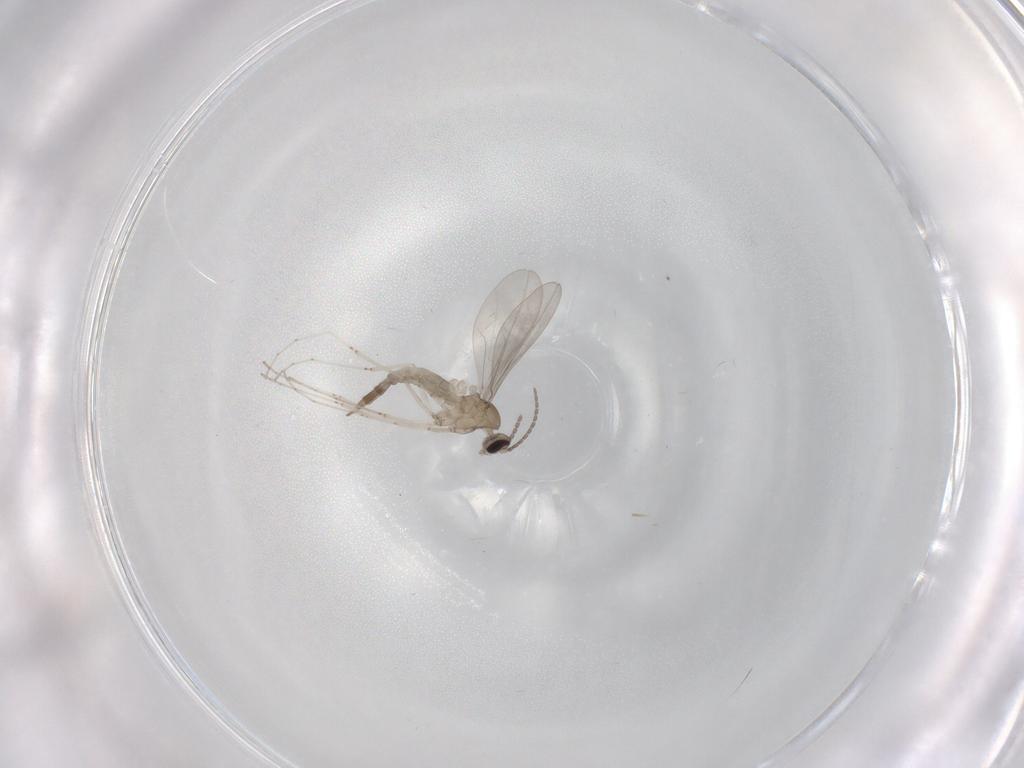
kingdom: Animalia
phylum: Arthropoda
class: Insecta
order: Diptera
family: Cecidomyiidae
